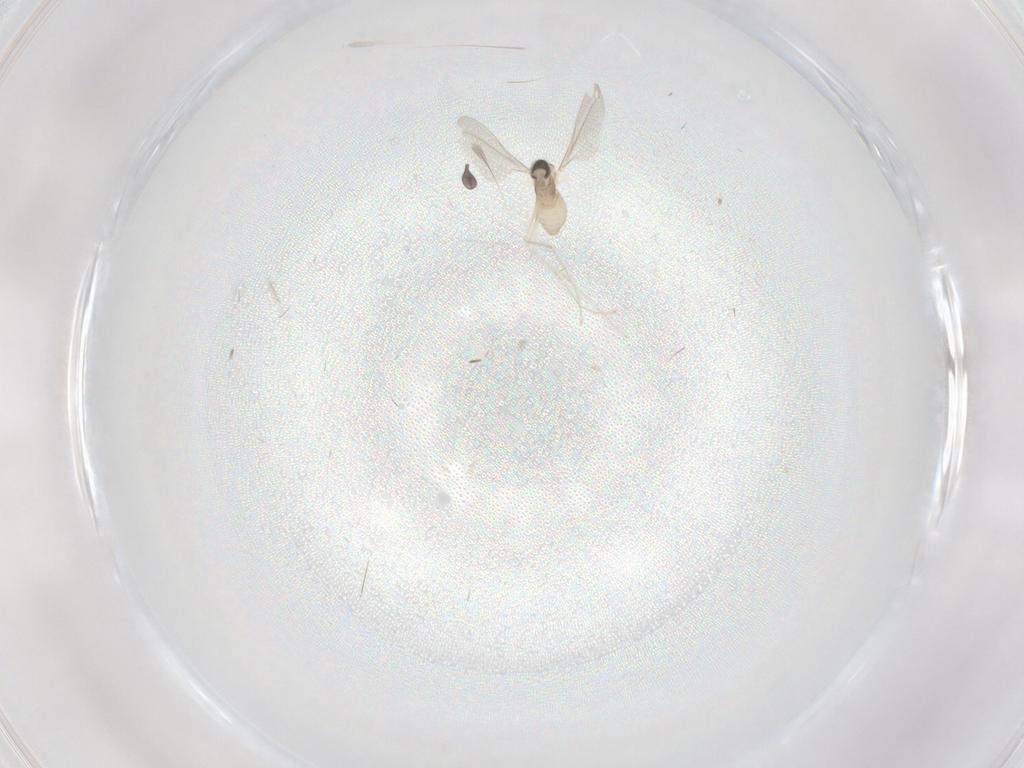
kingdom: Animalia
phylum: Arthropoda
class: Insecta
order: Diptera
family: Cecidomyiidae
